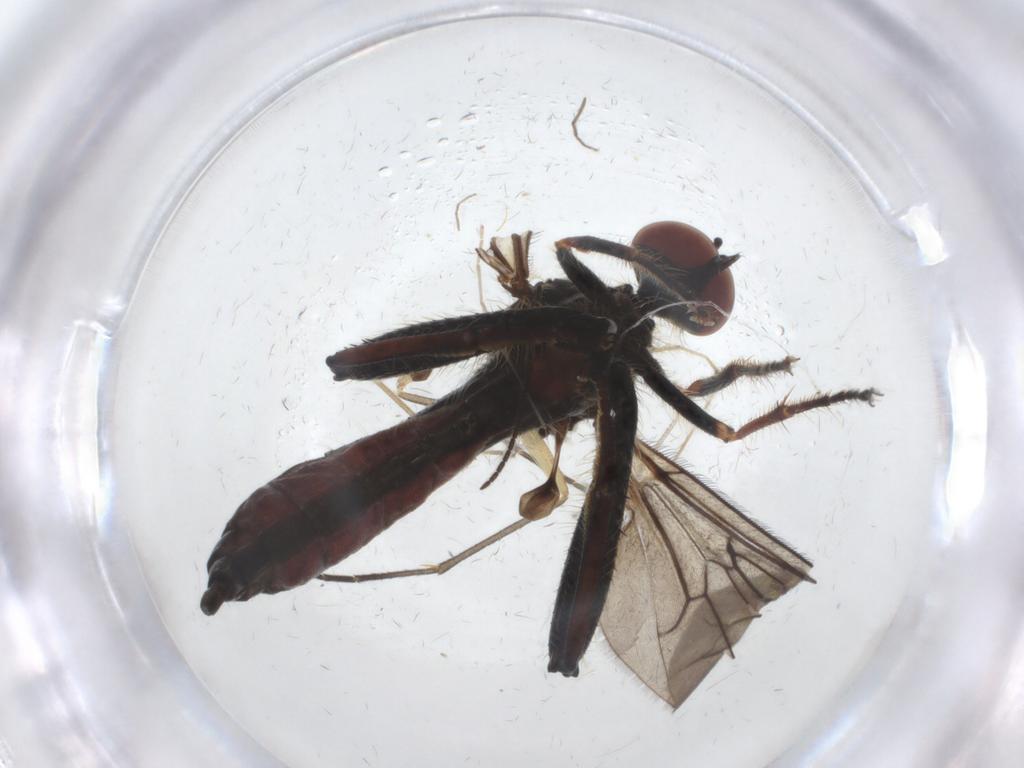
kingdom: Animalia
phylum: Arthropoda
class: Insecta
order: Diptera
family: Hybotidae
